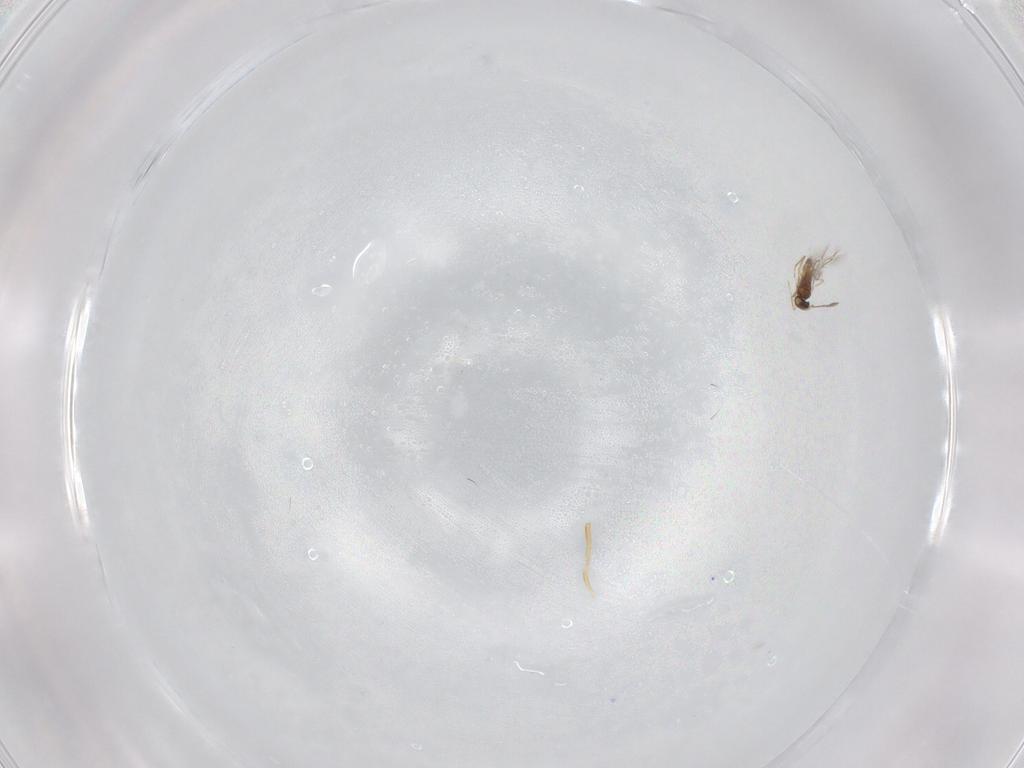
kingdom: Animalia
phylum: Arthropoda
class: Insecta
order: Hymenoptera
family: Mymaridae
